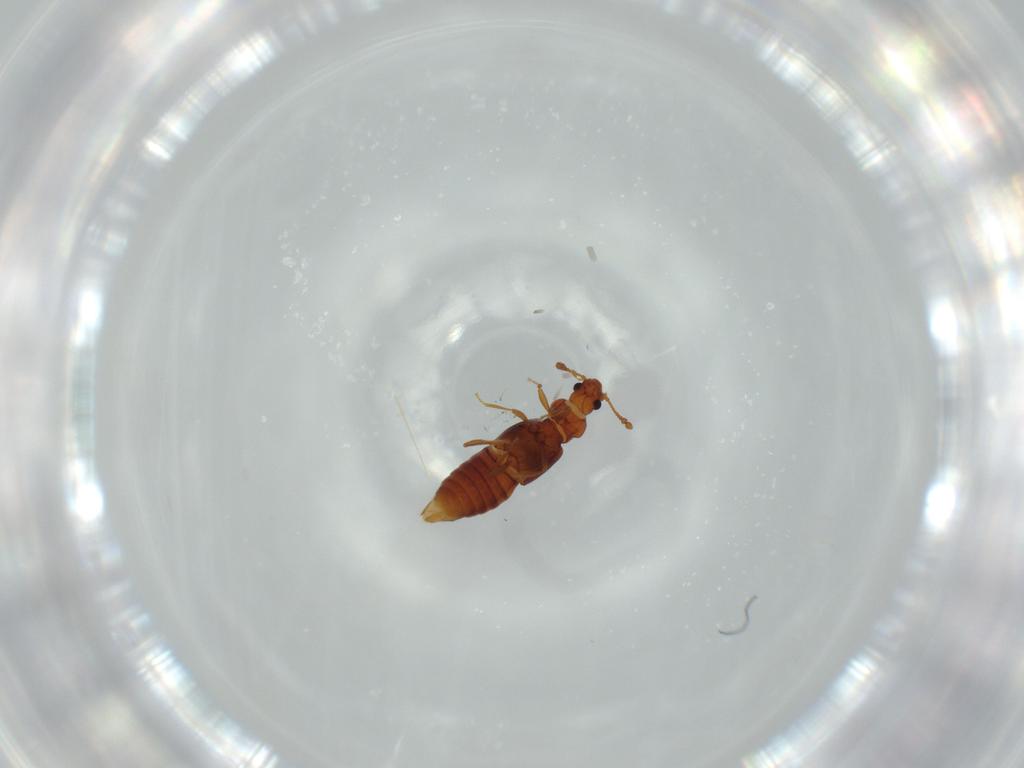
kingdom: Animalia
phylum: Arthropoda
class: Insecta
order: Coleoptera
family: Staphylinidae
